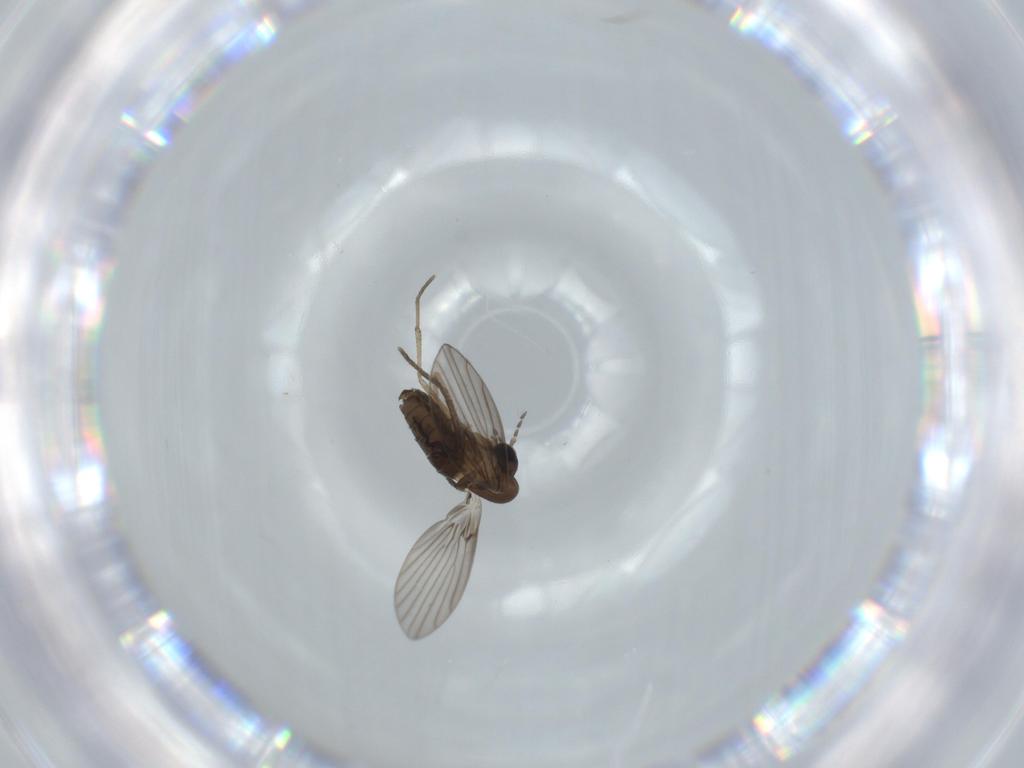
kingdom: Animalia
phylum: Arthropoda
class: Insecta
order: Diptera
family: Psychodidae
